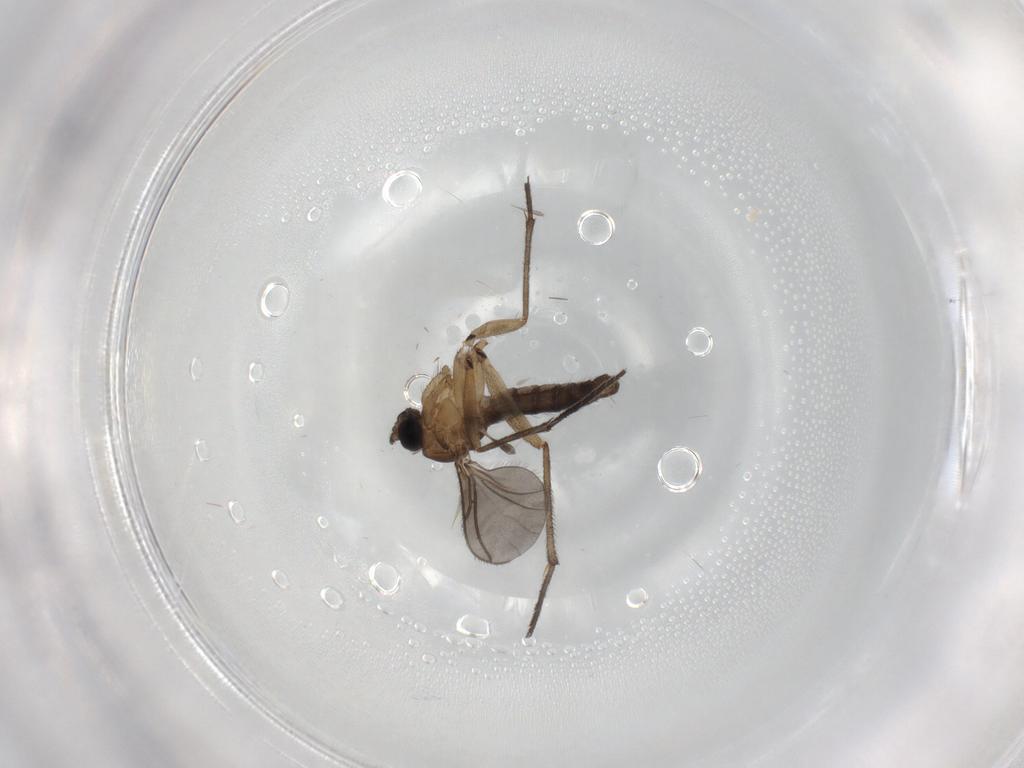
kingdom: Animalia
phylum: Arthropoda
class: Insecta
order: Diptera
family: Sciaridae
